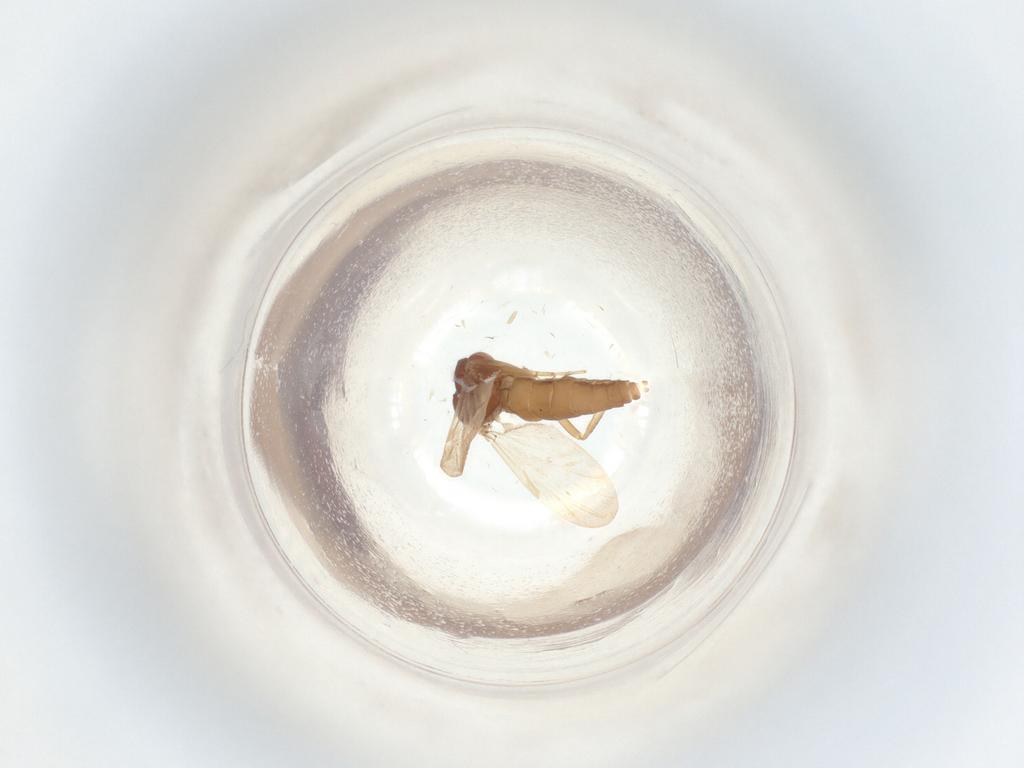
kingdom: Animalia
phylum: Arthropoda
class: Insecta
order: Diptera
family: Ceratopogonidae
